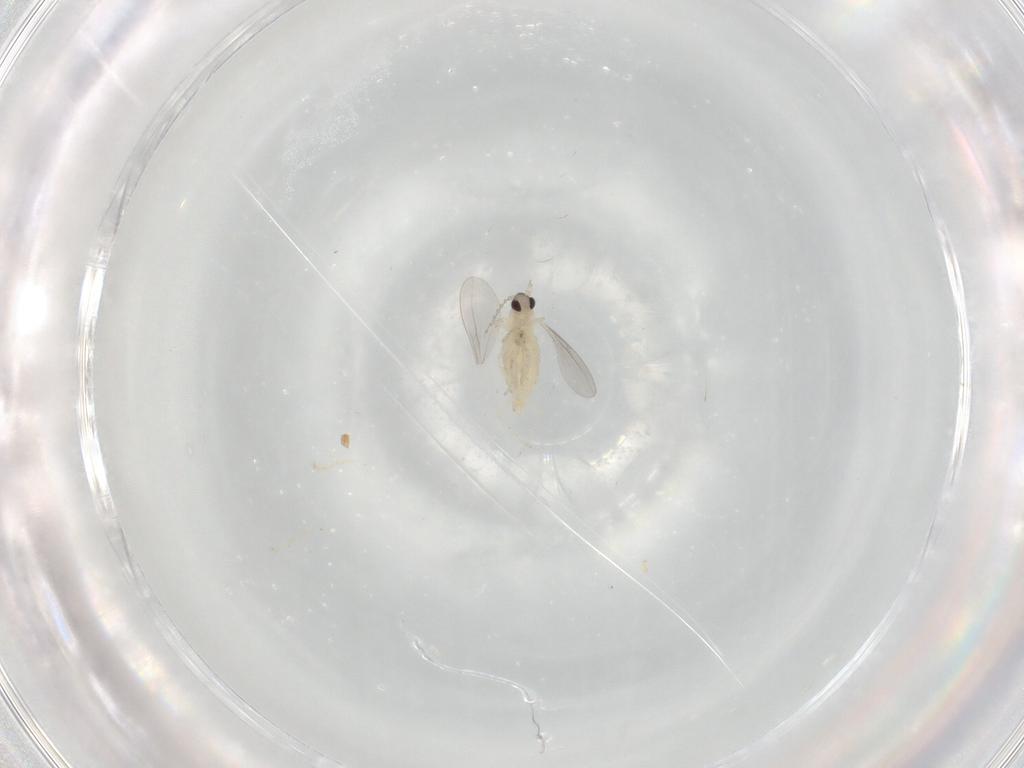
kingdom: Animalia
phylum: Arthropoda
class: Insecta
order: Diptera
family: Cecidomyiidae
